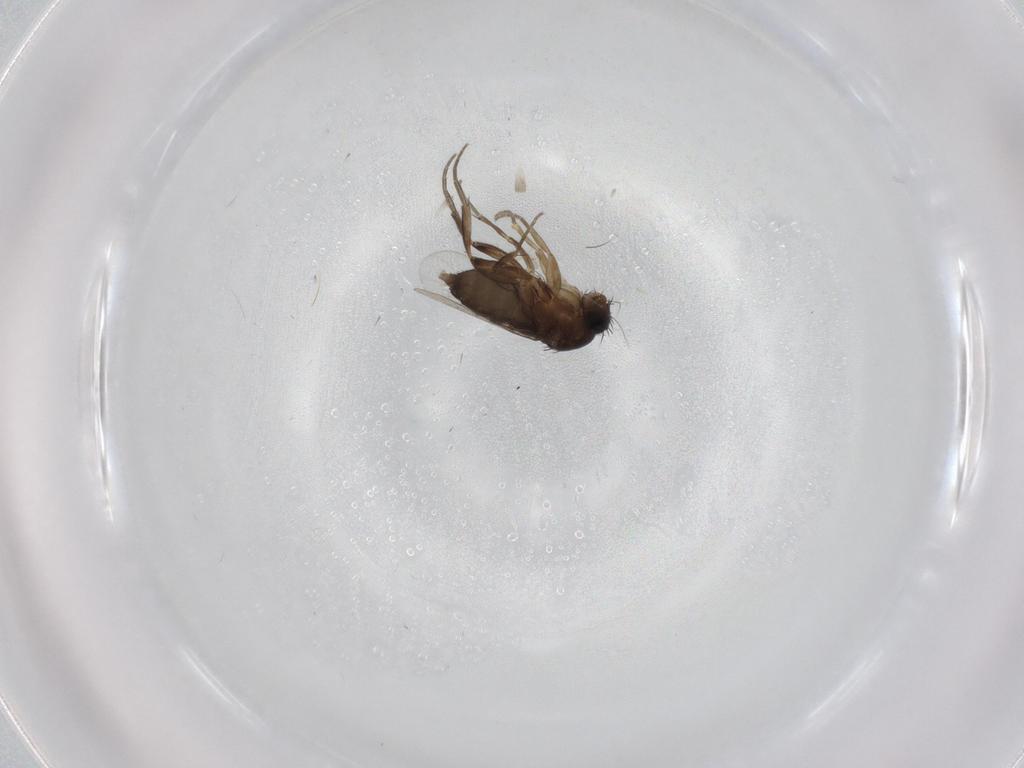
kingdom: Animalia
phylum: Arthropoda
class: Insecta
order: Diptera
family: Phoridae
